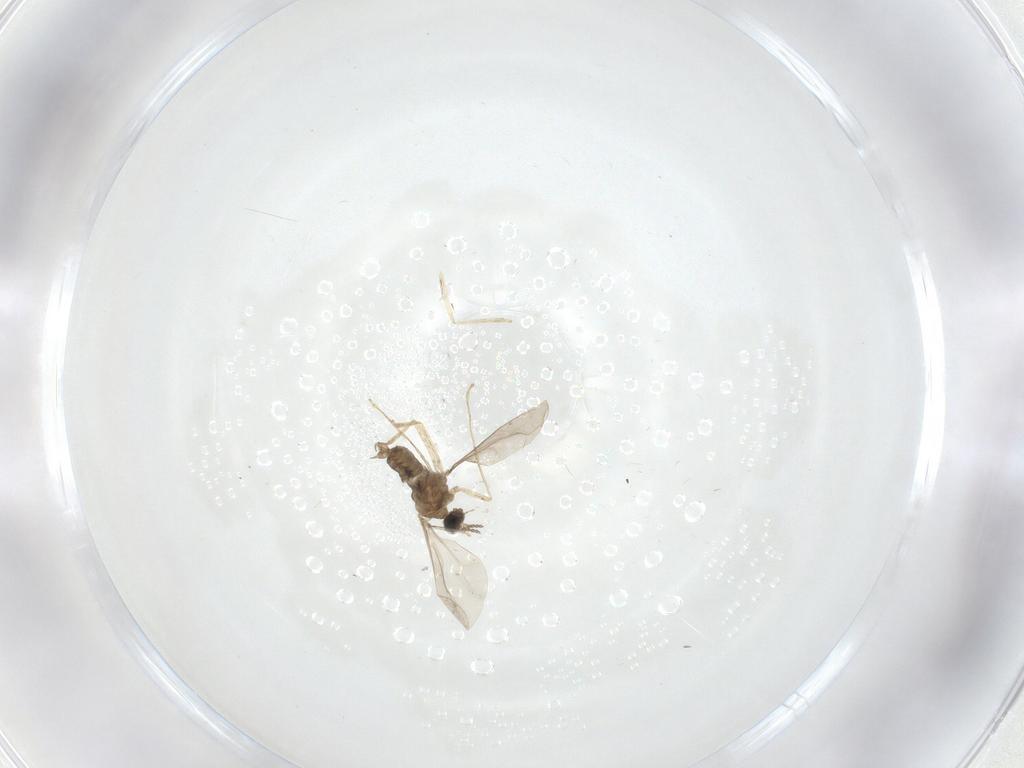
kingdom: Animalia
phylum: Arthropoda
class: Insecta
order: Diptera
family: Cecidomyiidae
